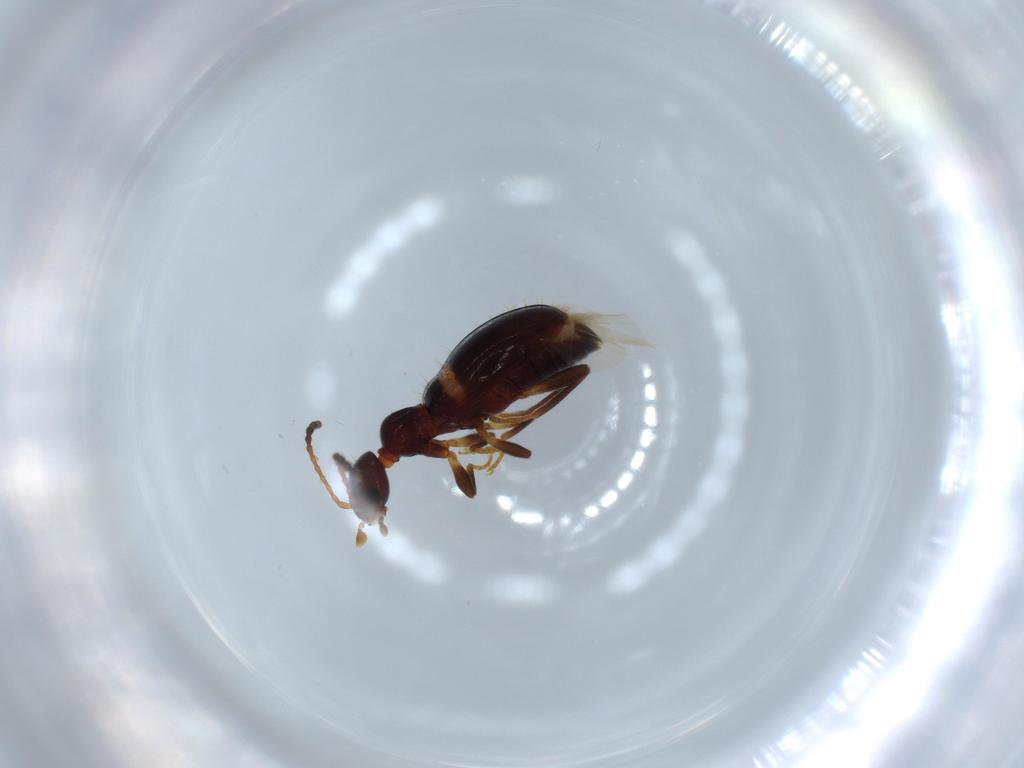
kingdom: Animalia
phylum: Arthropoda
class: Insecta
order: Coleoptera
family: Anthicidae
